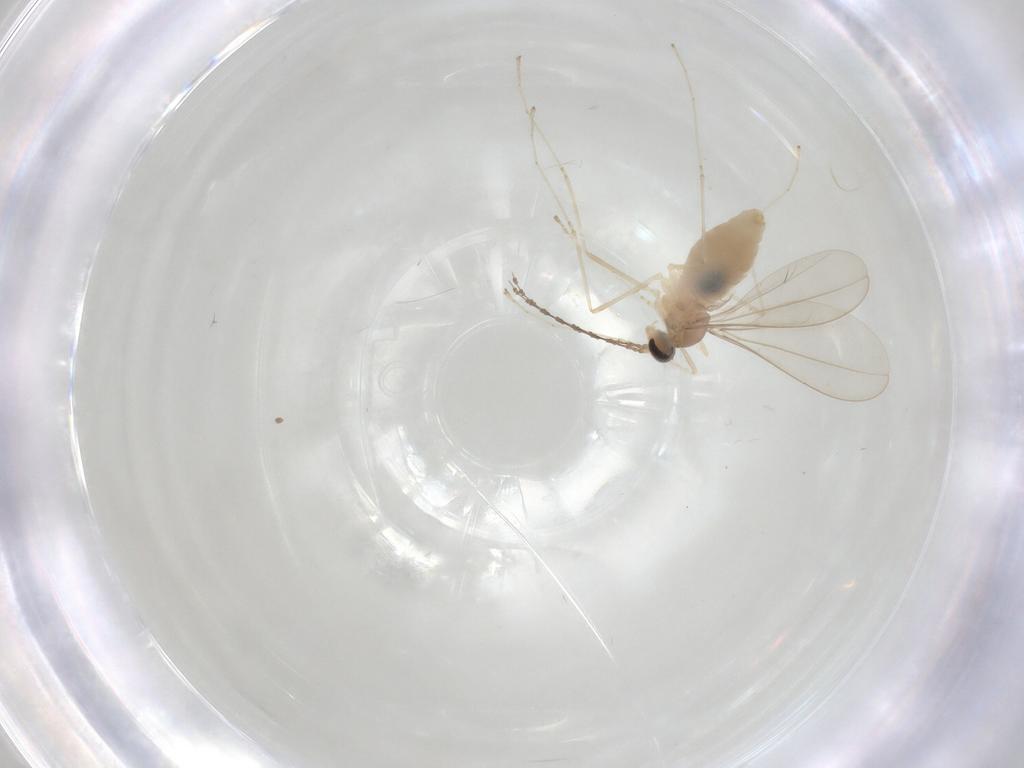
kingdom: Animalia
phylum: Arthropoda
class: Insecta
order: Diptera
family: Cecidomyiidae
